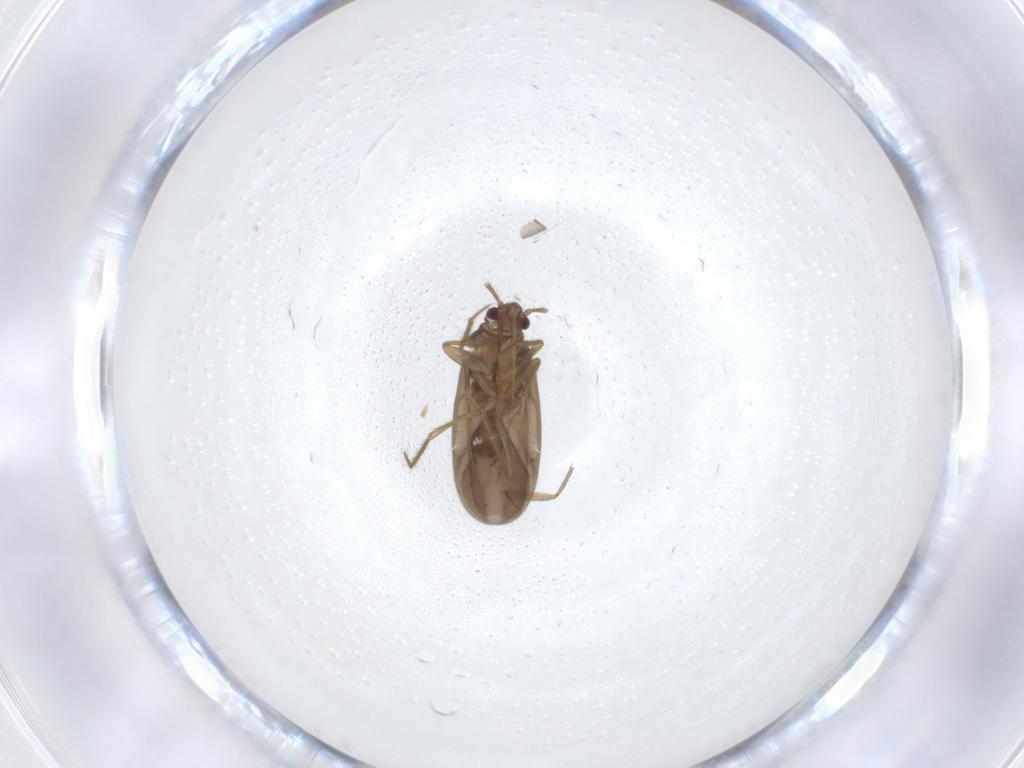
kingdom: Animalia
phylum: Arthropoda
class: Insecta
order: Hemiptera
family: Ceratocombidae
